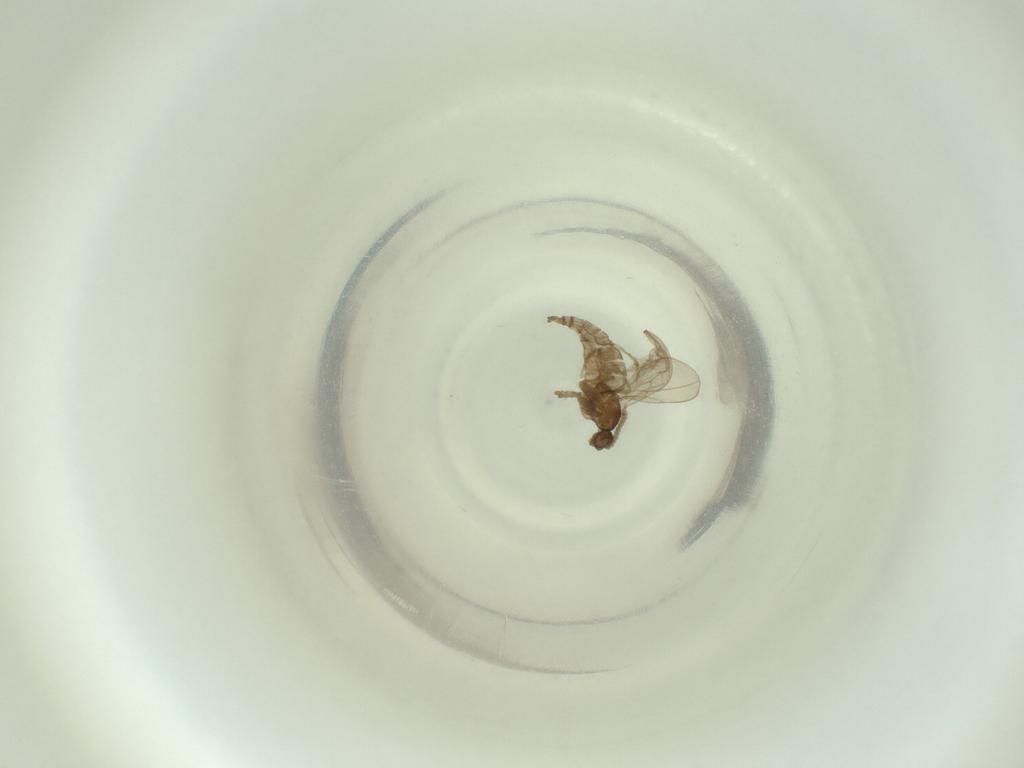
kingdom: Animalia
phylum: Arthropoda
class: Insecta
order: Diptera
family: Cecidomyiidae
